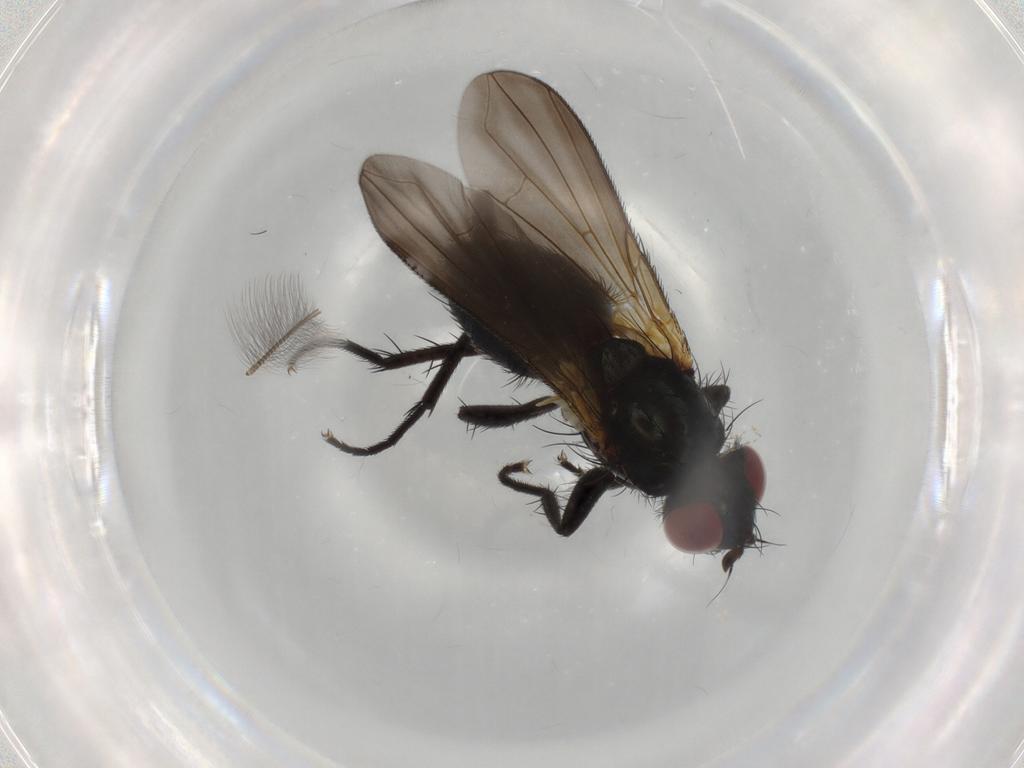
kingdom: Animalia
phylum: Arthropoda
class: Insecta
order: Diptera
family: Calliphoridae
